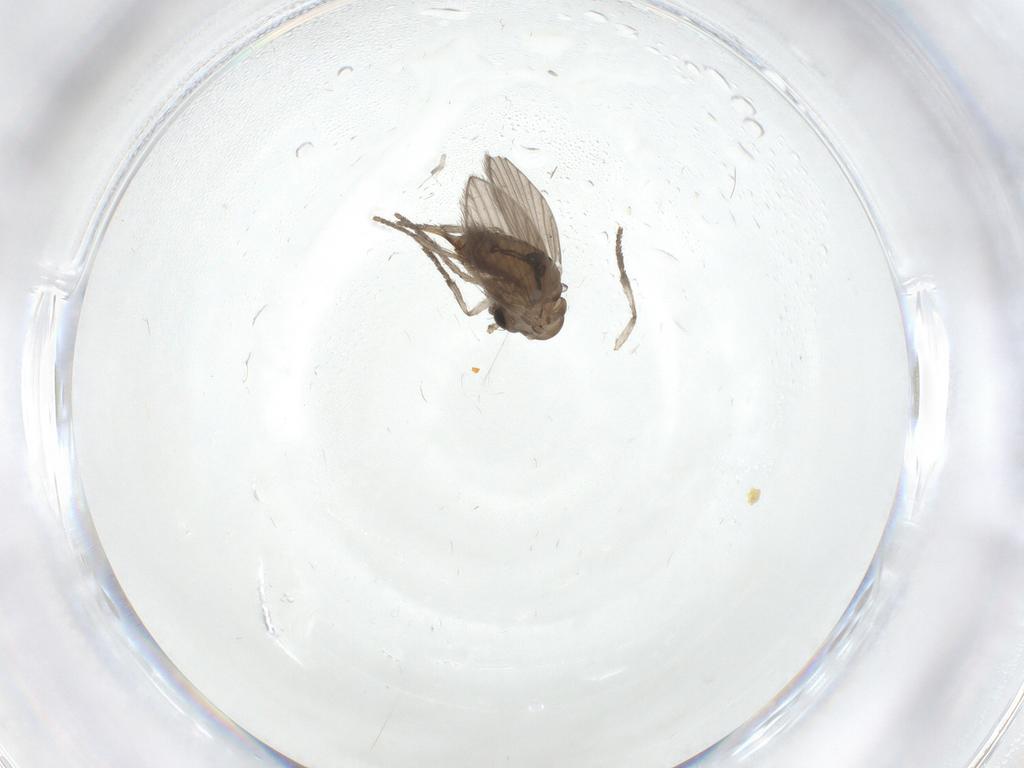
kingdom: Animalia
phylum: Arthropoda
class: Insecta
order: Diptera
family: Psychodidae
